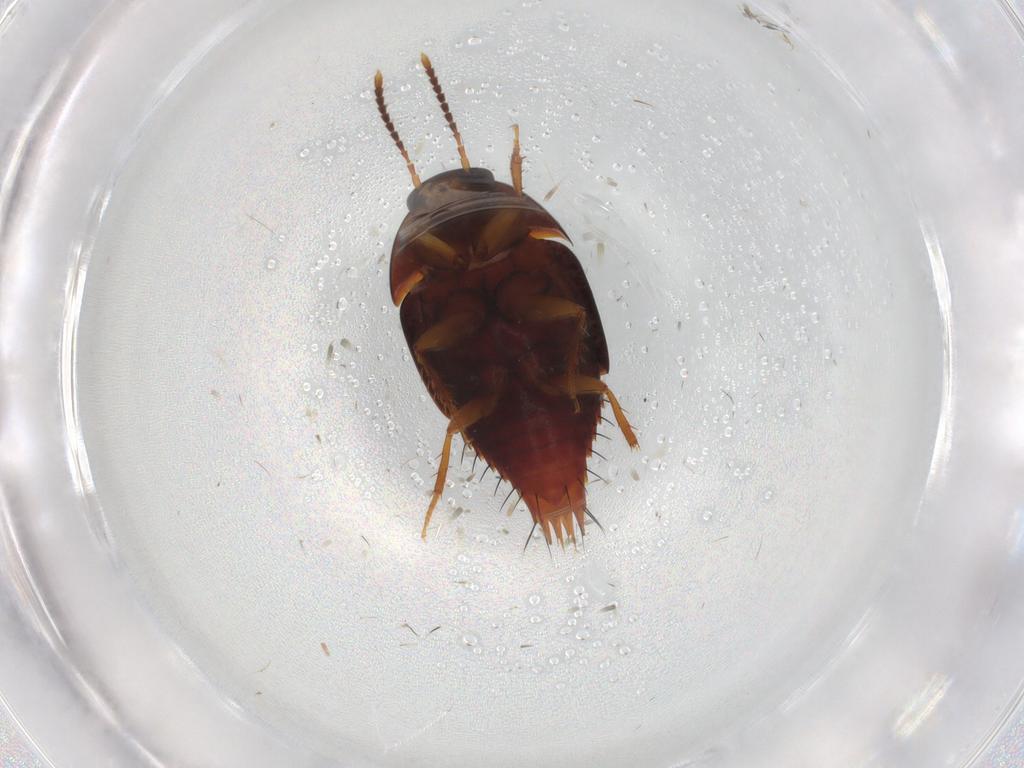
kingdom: Animalia
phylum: Arthropoda
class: Insecta
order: Coleoptera
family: Staphylinidae
